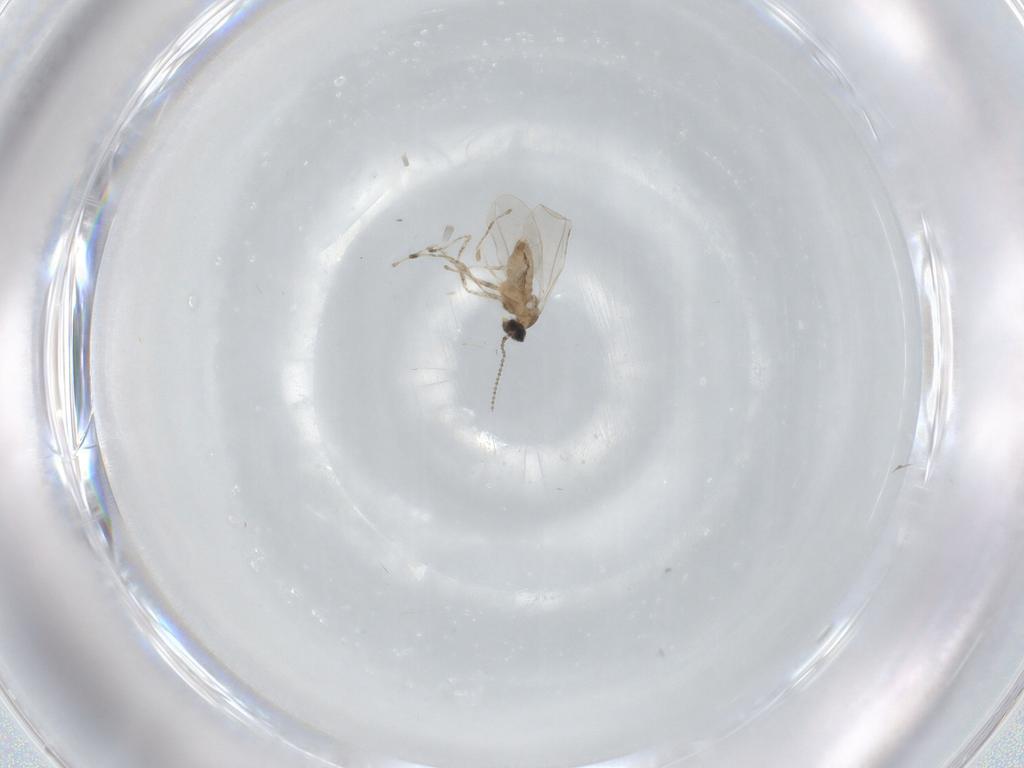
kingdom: Animalia
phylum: Arthropoda
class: Insecta
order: Diptera
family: Cecidomyiidae
